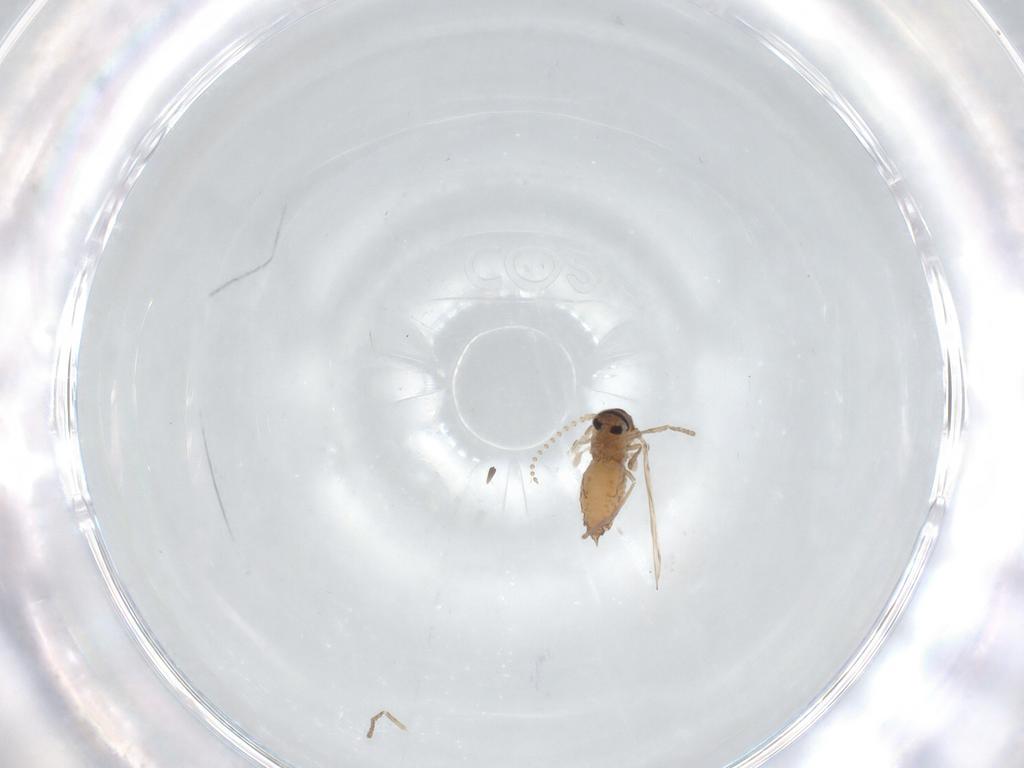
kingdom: Animalia
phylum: Arthropoda
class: Insecta
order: Diptera
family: Psychodidae
